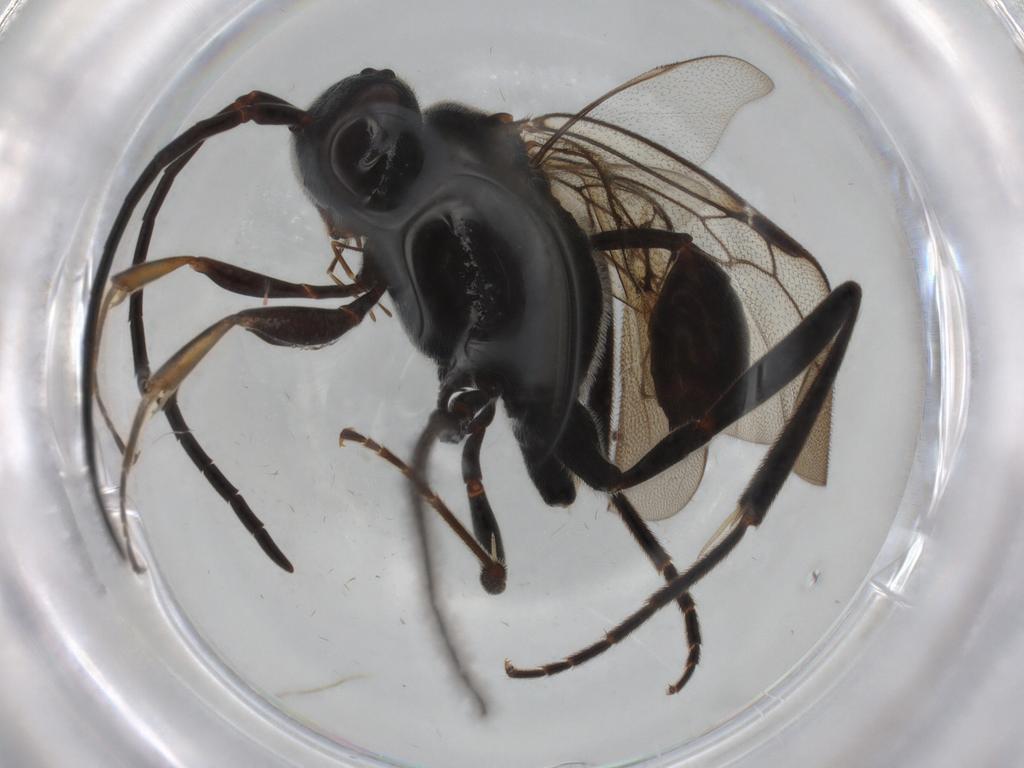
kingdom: Animalia
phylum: Arthropoda
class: Insecta
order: Hymenoptera
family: Evaniidae
